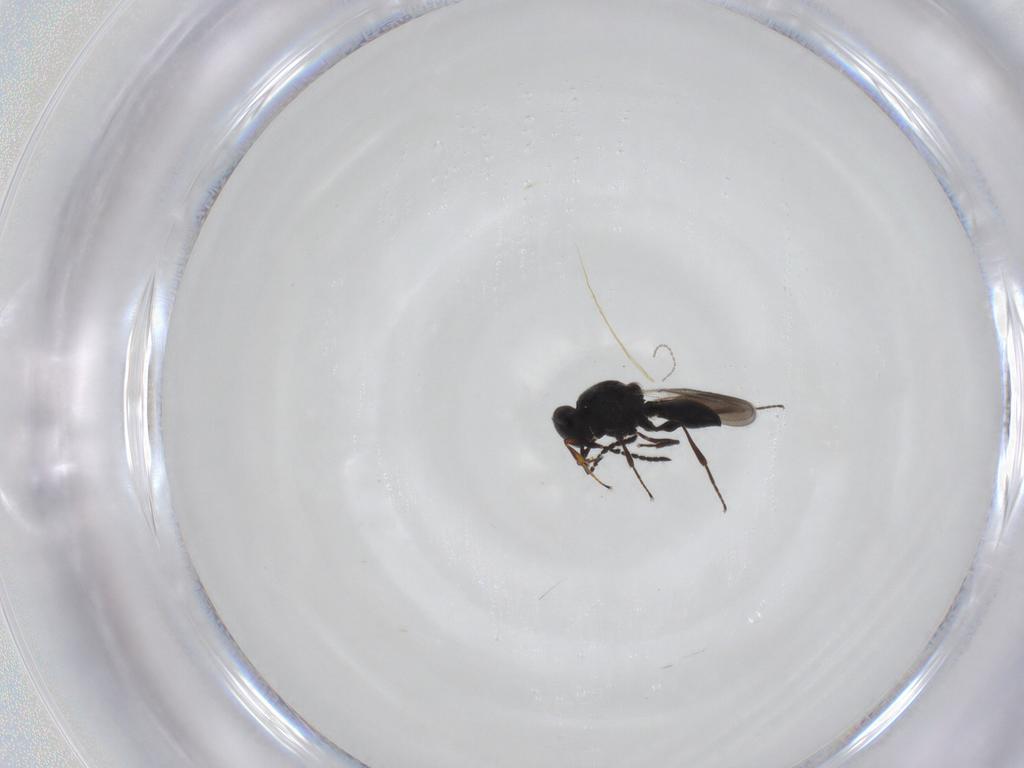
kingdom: Animalia
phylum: Arthropoda
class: Insecta
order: Hymenoptera
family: Platygastridae
